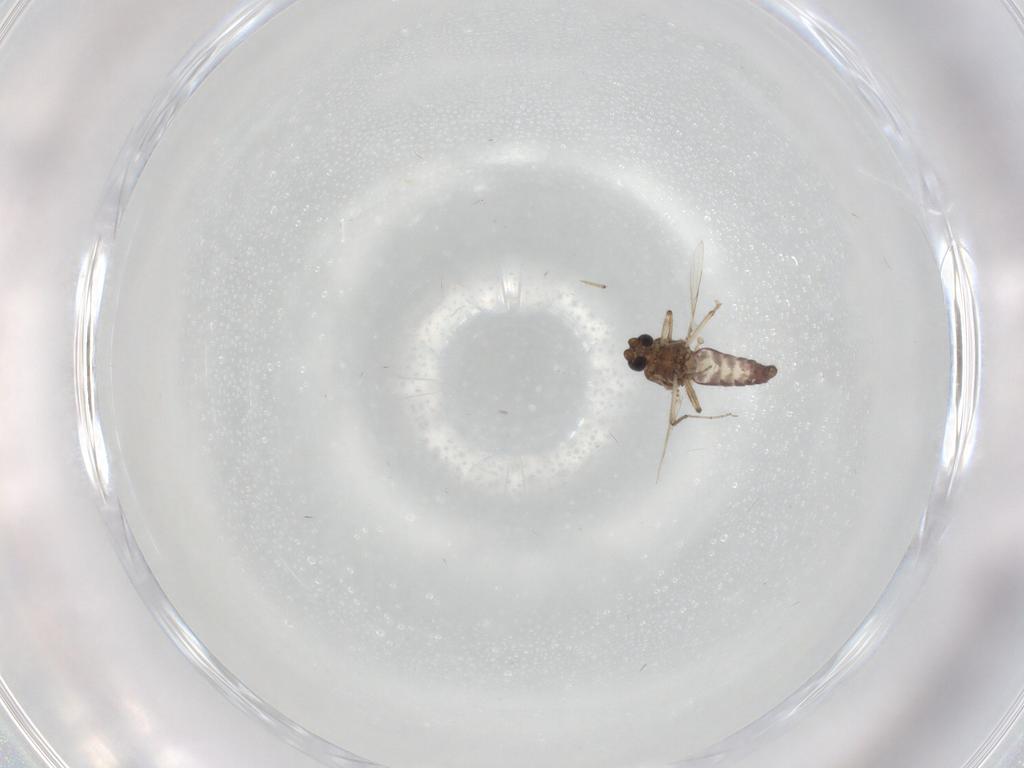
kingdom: Animalia
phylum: Arthropoda
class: Insecta
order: Diptera
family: Ceratopogonidae
